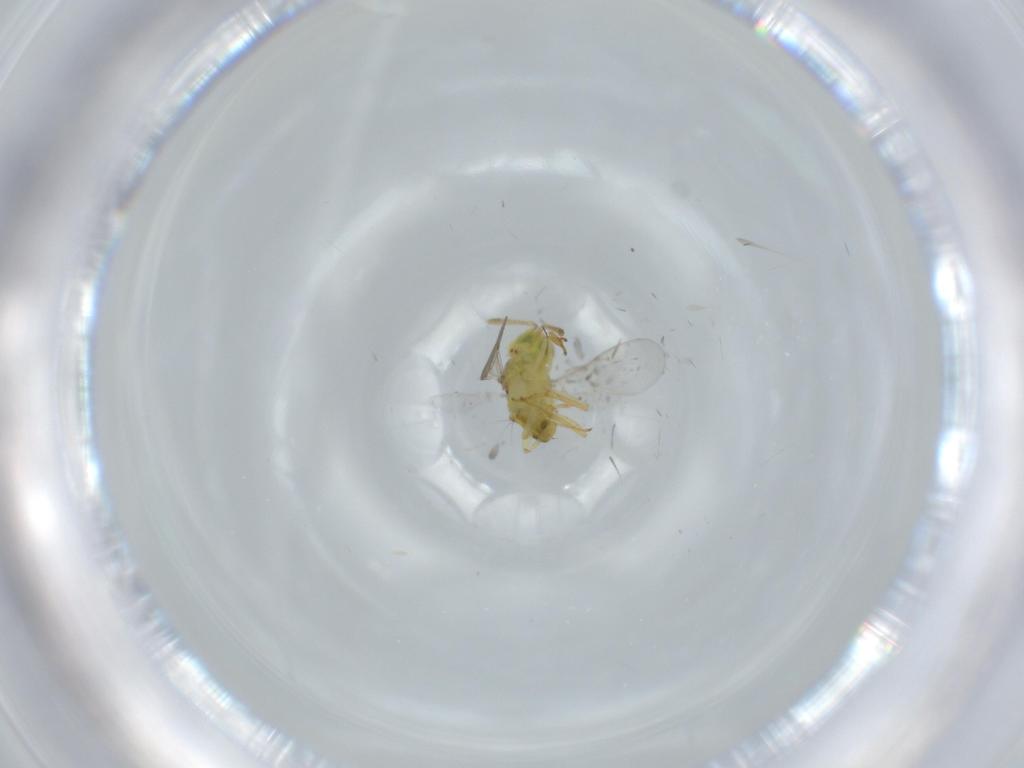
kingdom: Animalia
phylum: Arthropoda
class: Insecta
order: Hymenoptera
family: Encyrtidae
